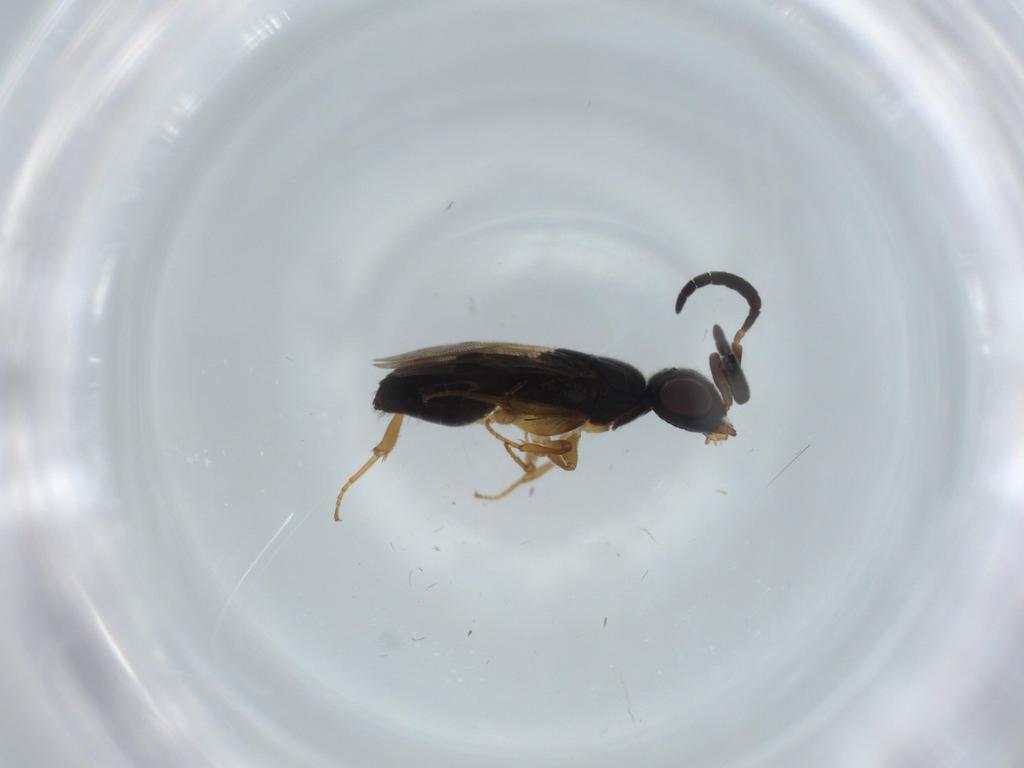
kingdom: Animalia
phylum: Arthropoda
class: Insecta
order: Hymenoptera
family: Megaspilidae
